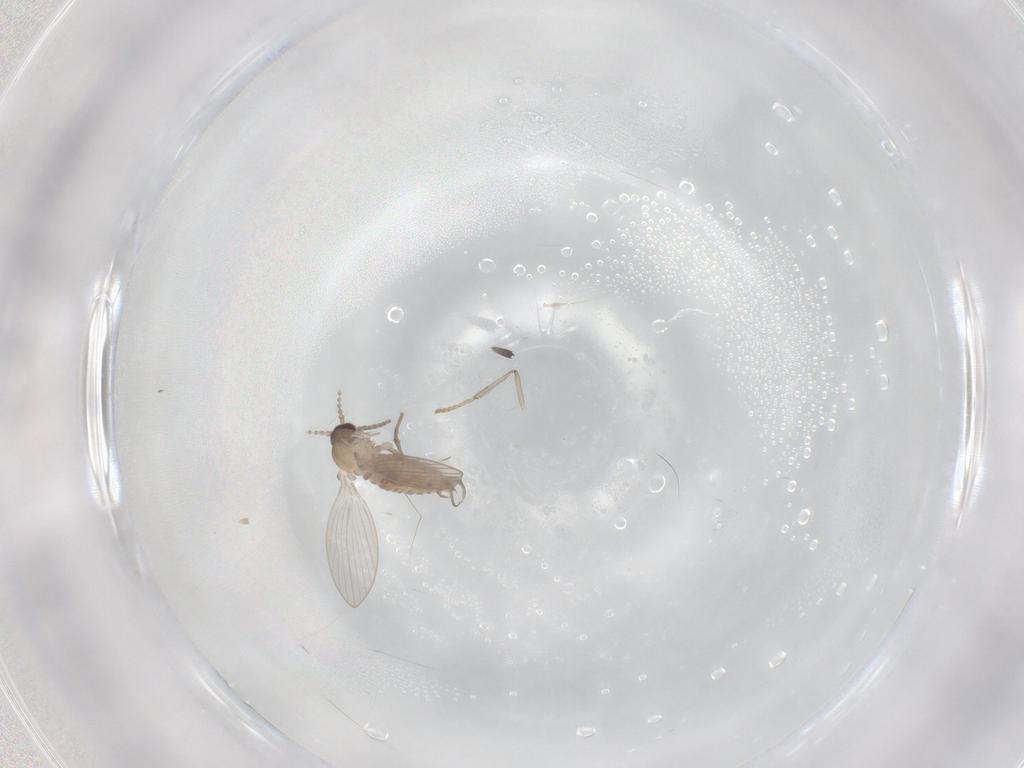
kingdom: Animalia
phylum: Arthropoda
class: Insecta
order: Diptera
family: Psychodidae
